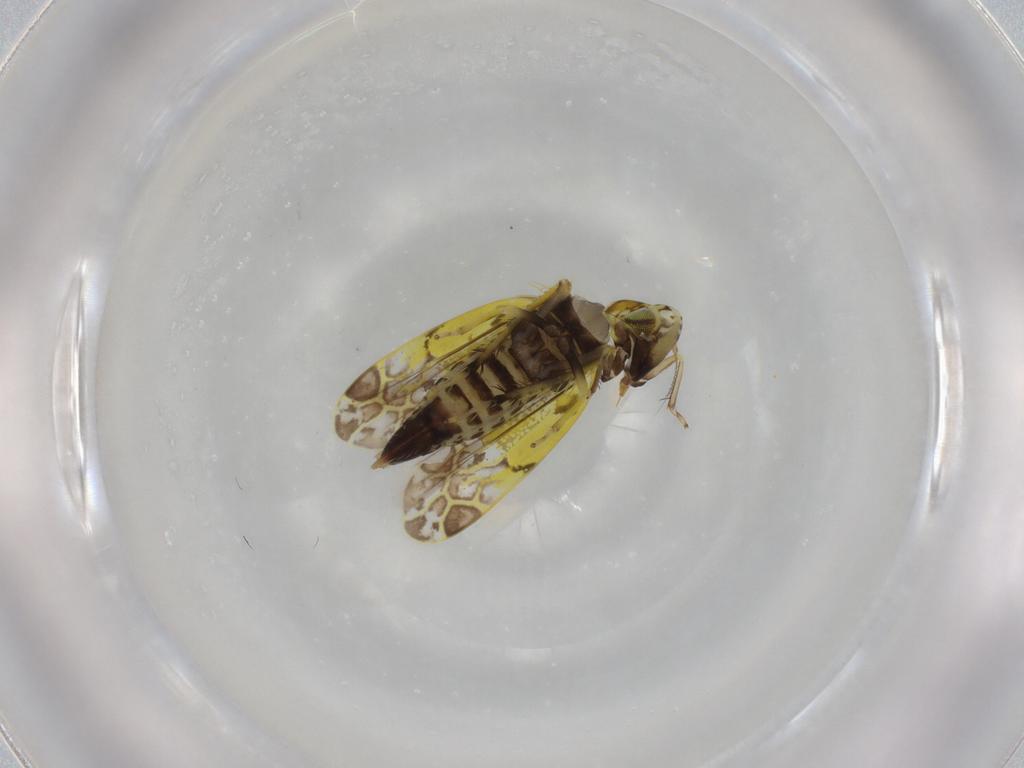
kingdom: Animalia
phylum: Arthropoda
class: Insecta
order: Hemiptera
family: Cicadellidae
